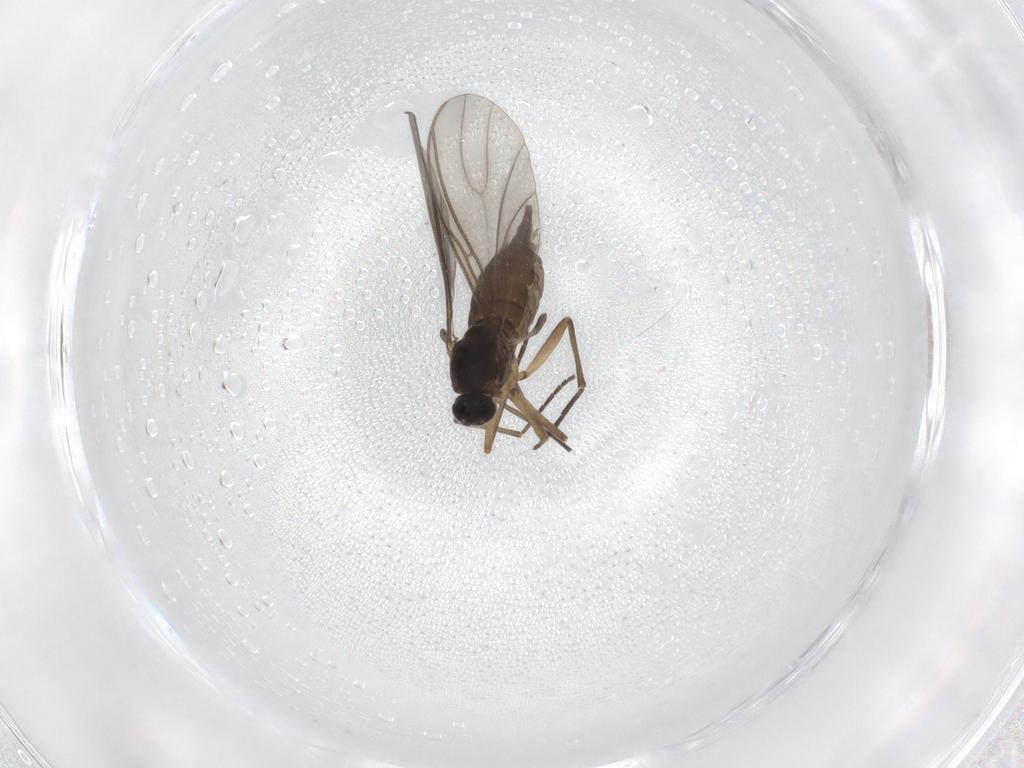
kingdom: Animalia
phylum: Arthropoda
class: Insecta
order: Diptera
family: Sciaridae
